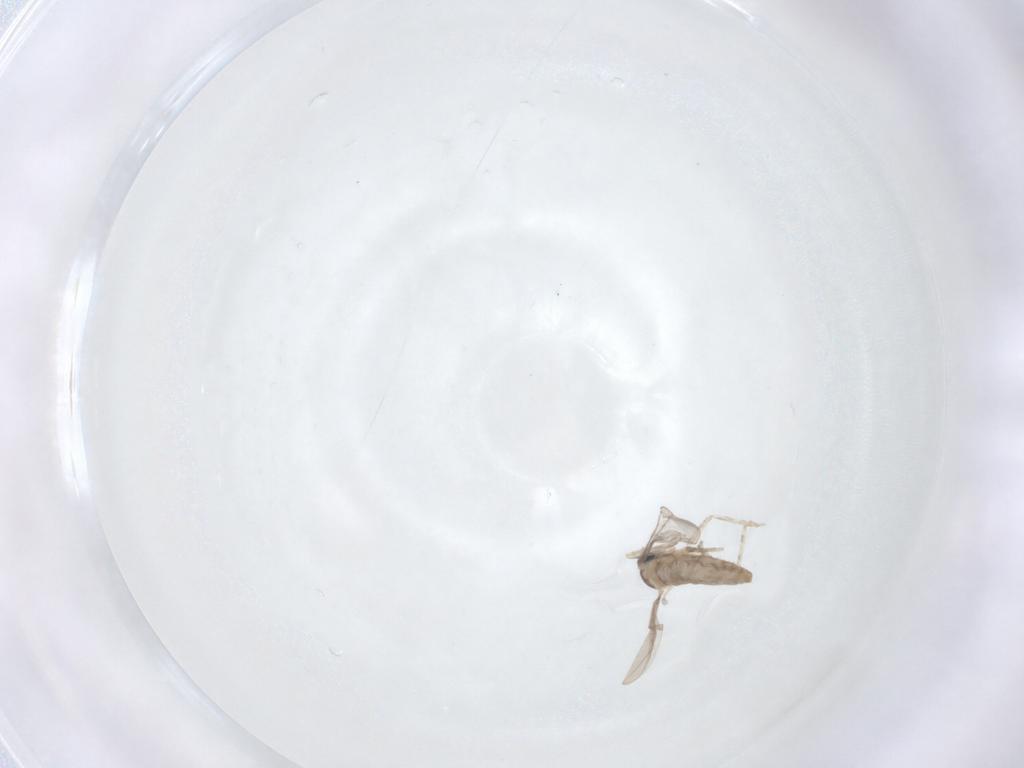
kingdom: Animalia
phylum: Arthropoda
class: Insecta
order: Diptera
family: Cecidomyiidae
